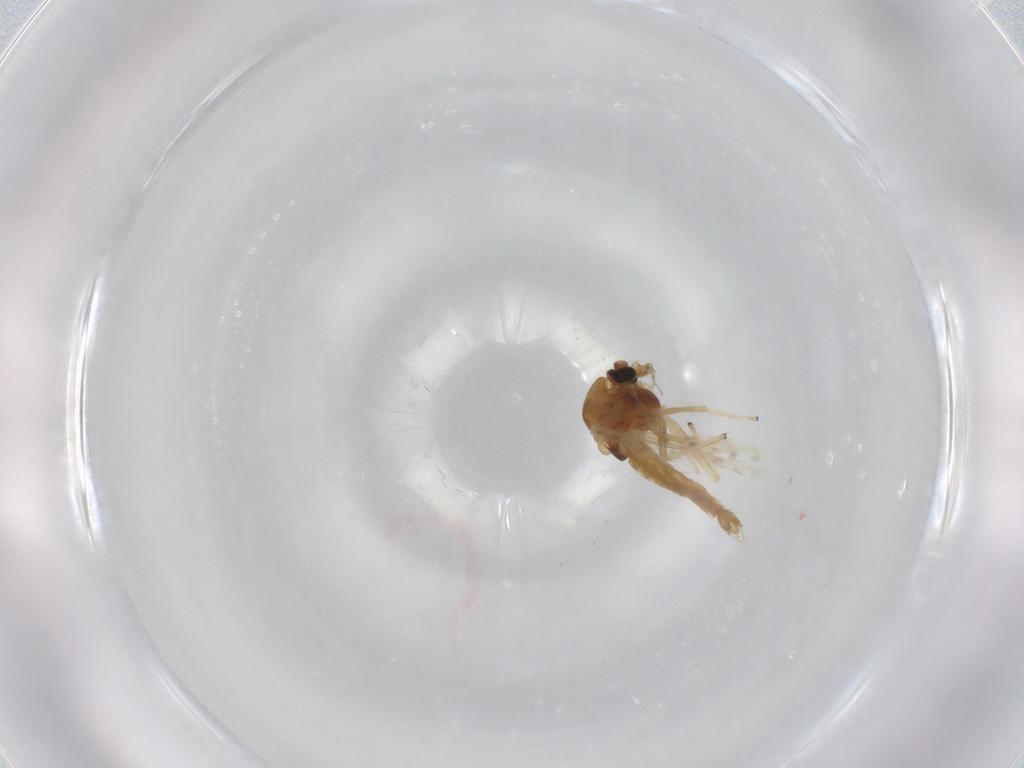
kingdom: Animalia
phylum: Arthropoda
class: Insecta
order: Diptera
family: Chironomidae
